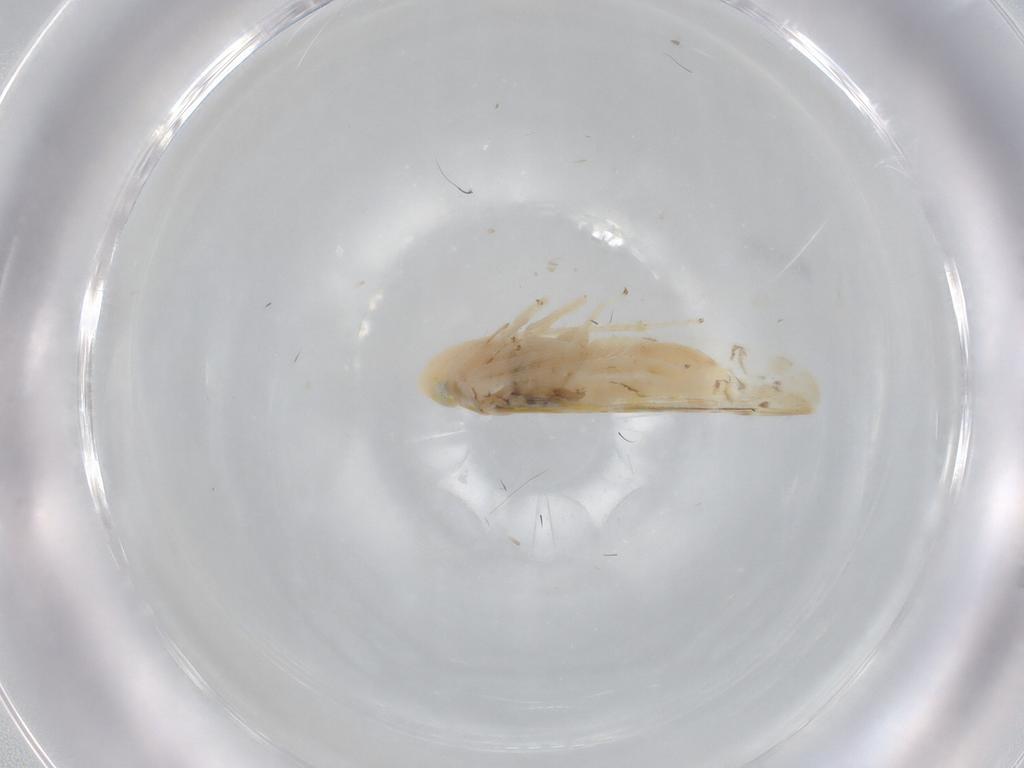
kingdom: Animalia
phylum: Arthropoda
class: Insecta
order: Hemiptera
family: Cicadellidae
